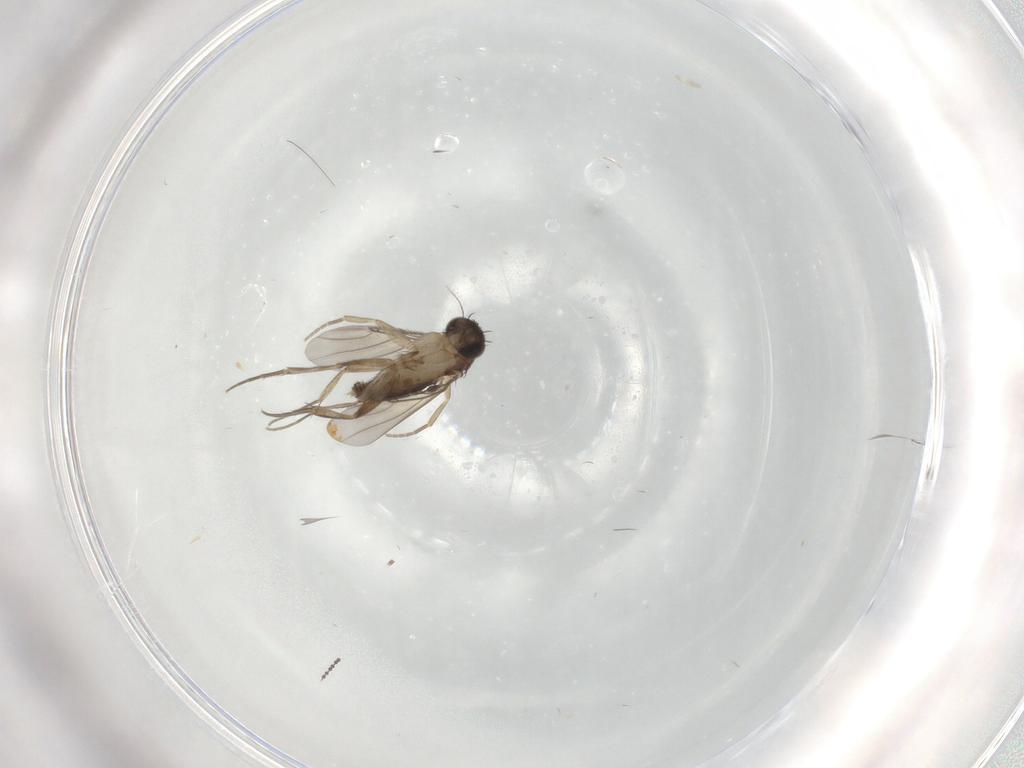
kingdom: Animalia
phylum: Arthropoda
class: Insecta
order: Diptera
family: Phoridae
